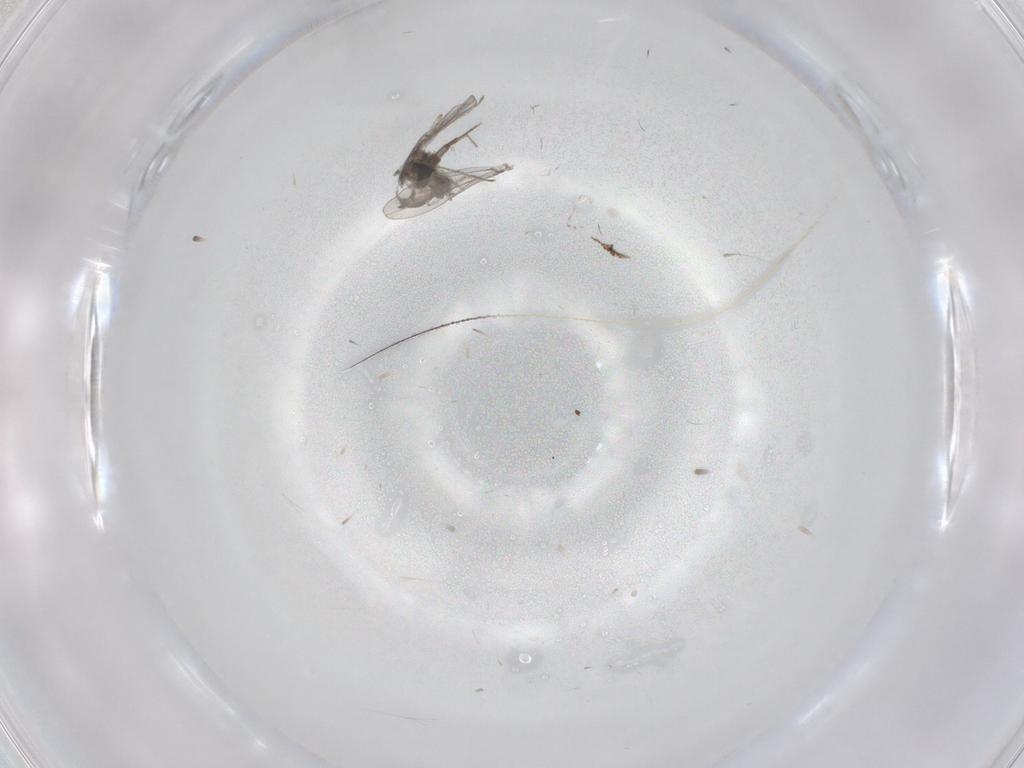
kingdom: Animalia
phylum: Arthropoda
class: Insecta
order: Diptera
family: Cecidomyiidae
